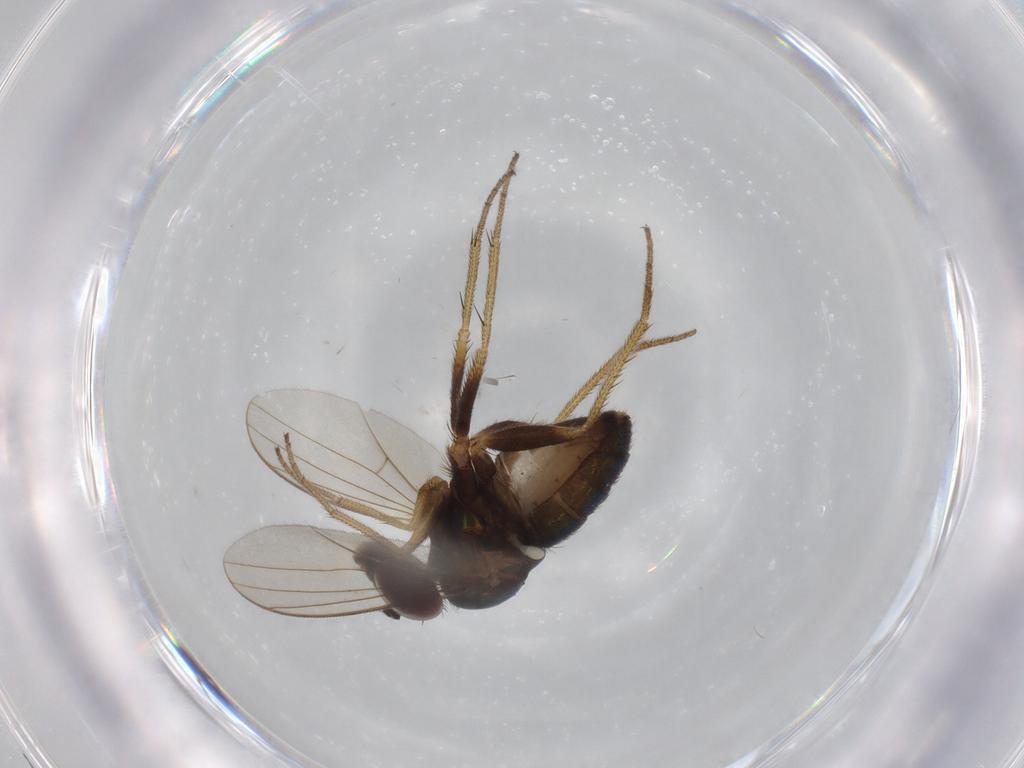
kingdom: Animalia
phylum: Arthropoda
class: Insecta
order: Diptera
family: Dolichopodidae
